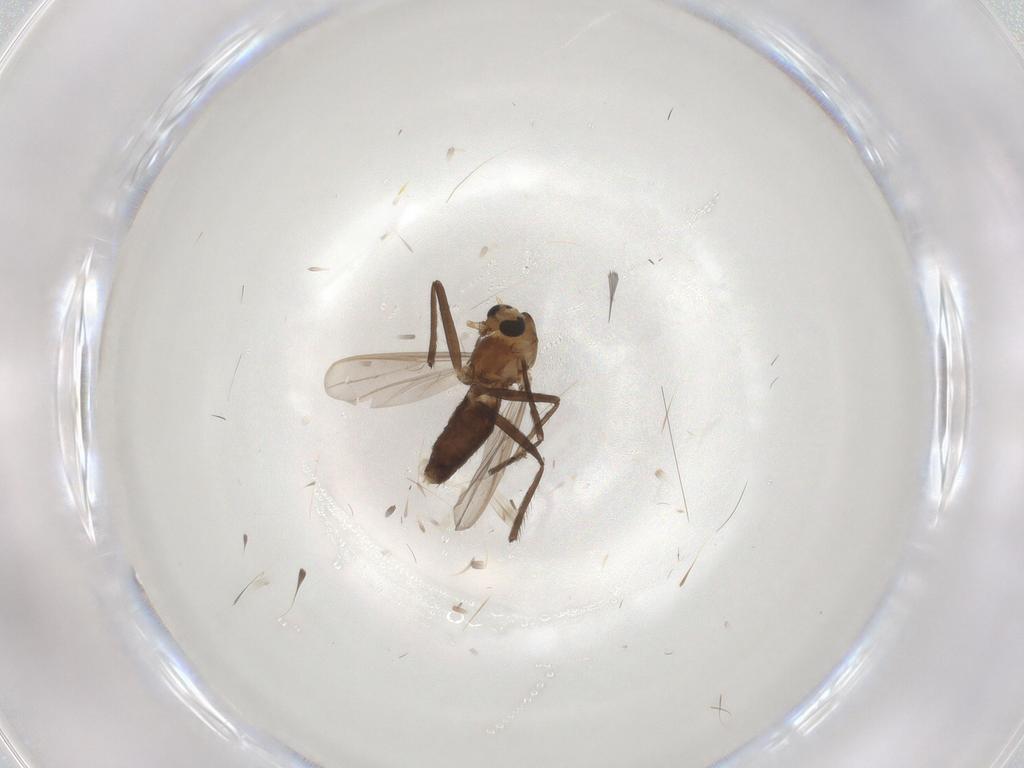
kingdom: Animalia
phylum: Arthropoda
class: Insecta
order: Diptera
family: Chironomidae
